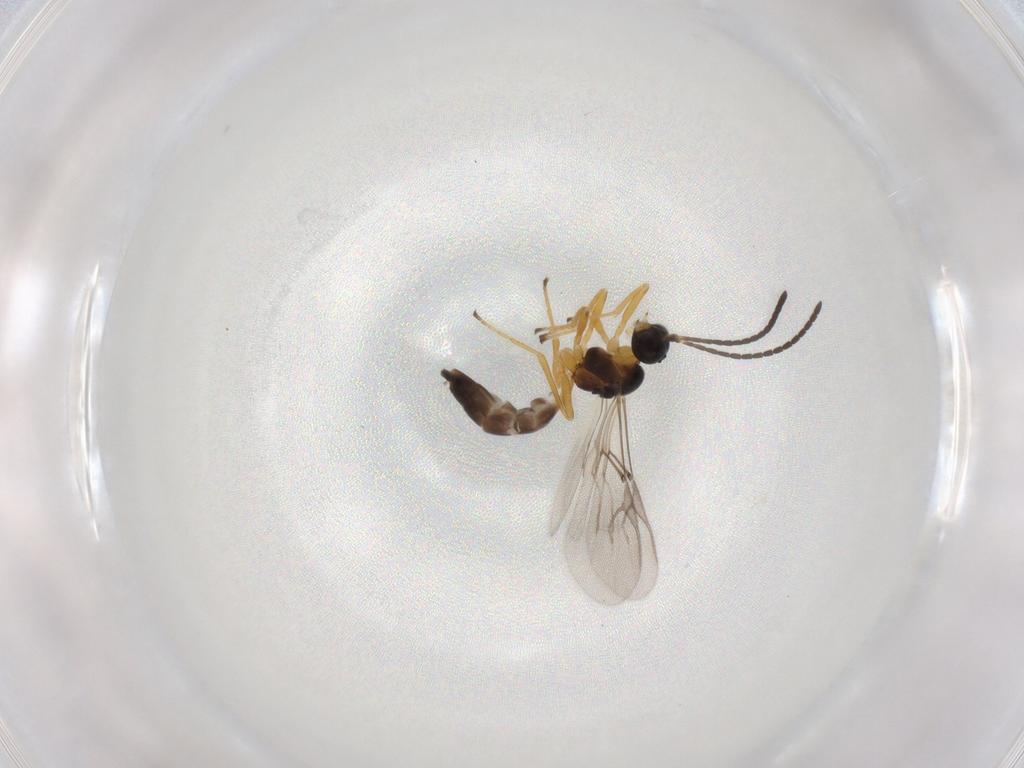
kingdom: Animalia
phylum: Arthropoda
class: Insecta
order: Hymenoptera
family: Braconidae
